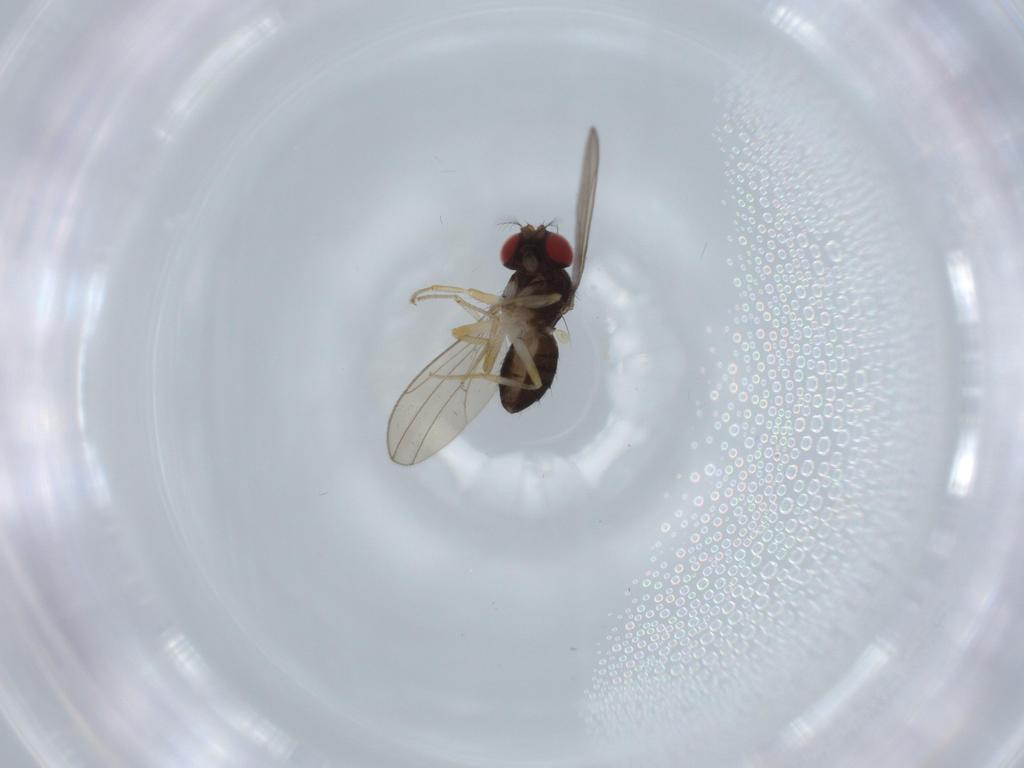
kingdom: Animalia
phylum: Arthropoda
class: Insecta
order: Diptera
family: Drosophilidae
